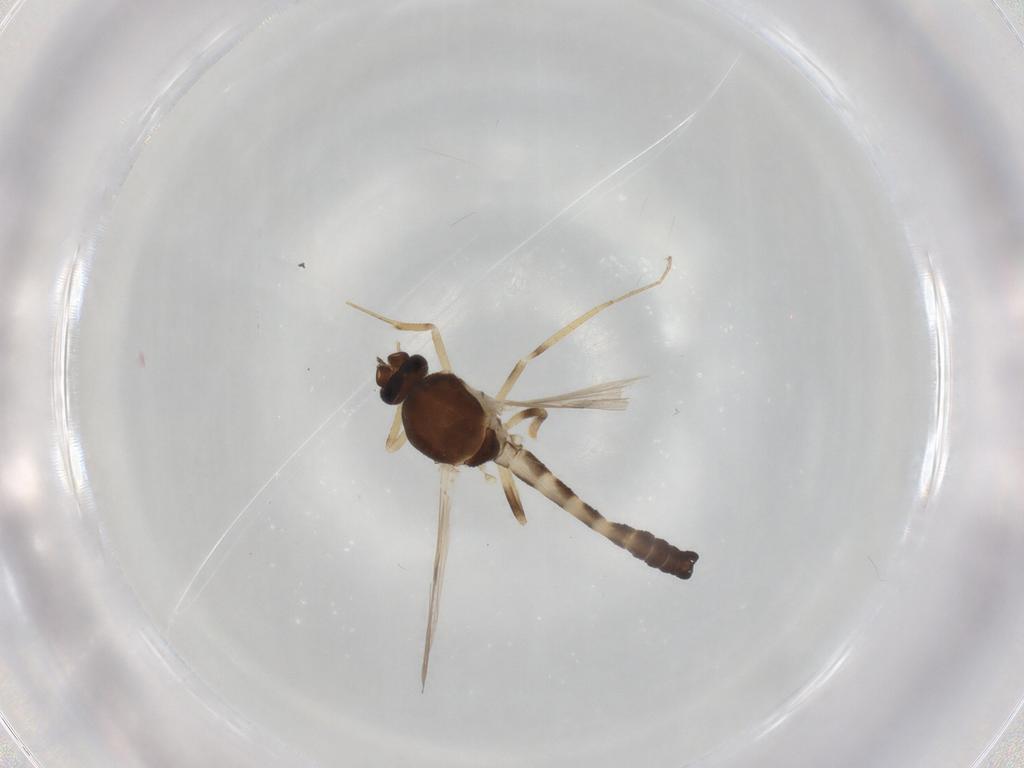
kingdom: Animalia
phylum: Arthropoda
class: Insecta
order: Diptera
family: Ceratopogonidae
